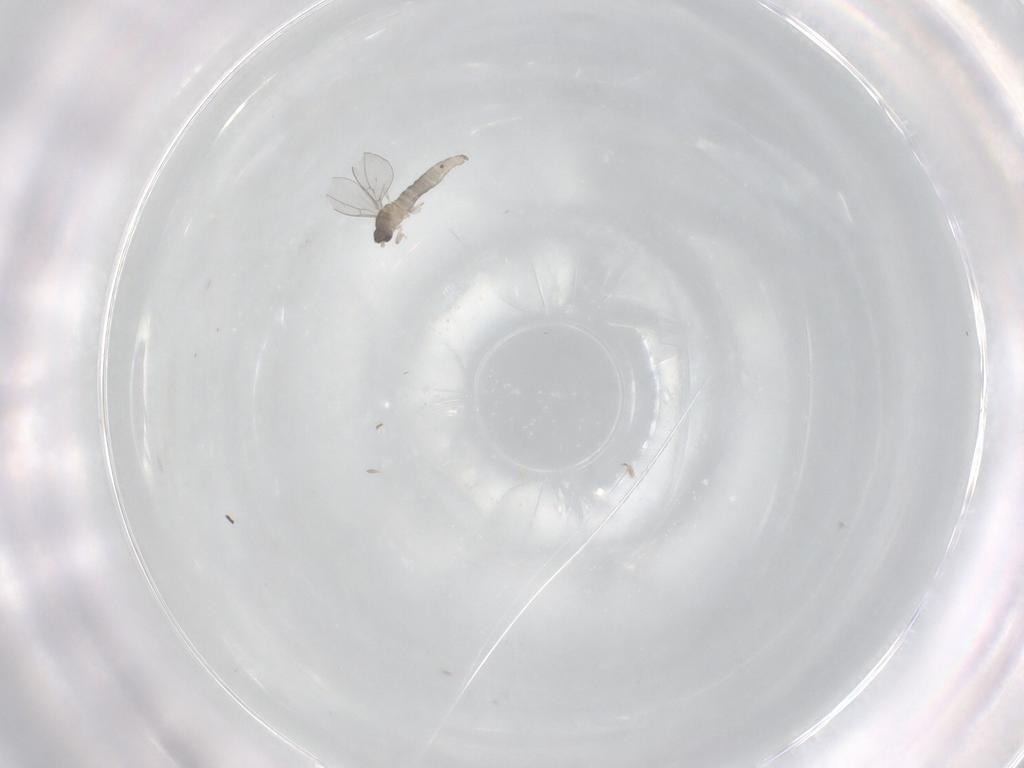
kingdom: Animalia
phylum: Arthropoda
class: Insecta
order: Diptera
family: Cecidomyiidae
